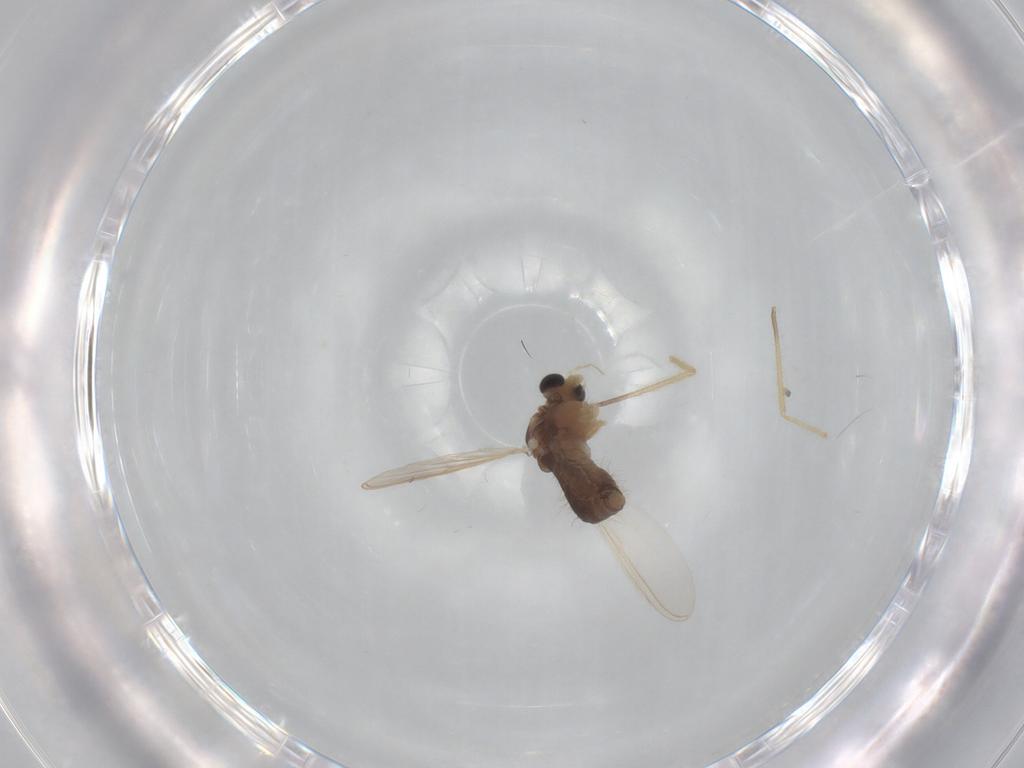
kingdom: Animalia
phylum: Arthropoda
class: Insecta
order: Diptera
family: Chironomidae
